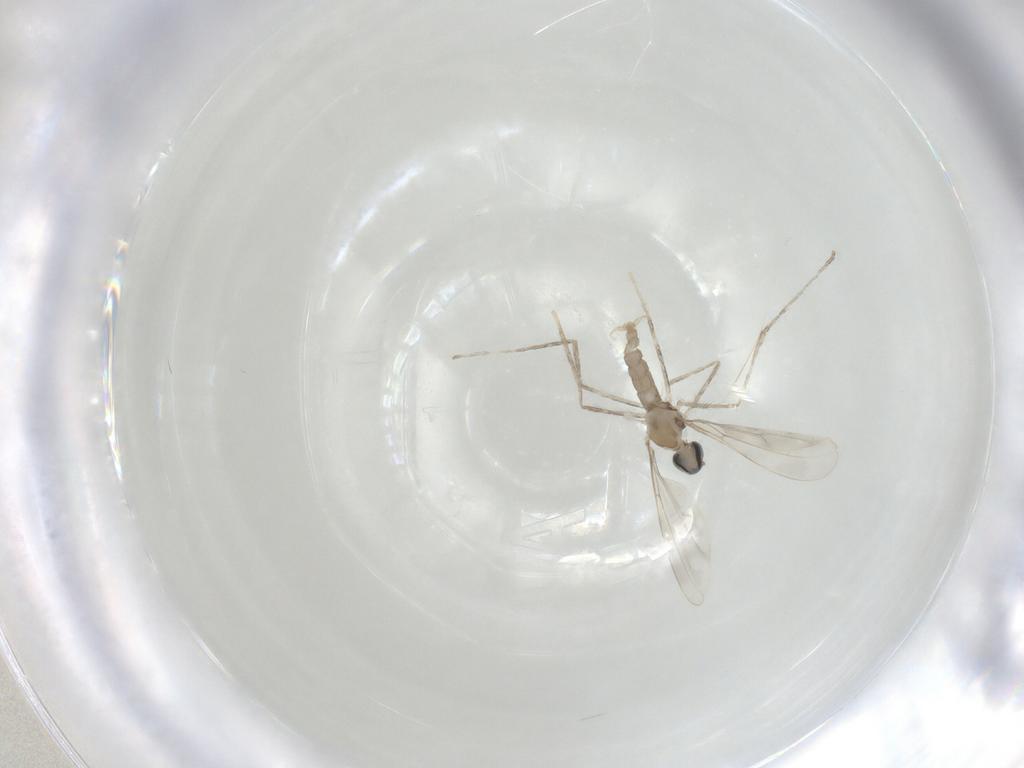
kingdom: Animalia
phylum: Arthropoda
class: Insecta
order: Diptera
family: Cecidomyiidae
